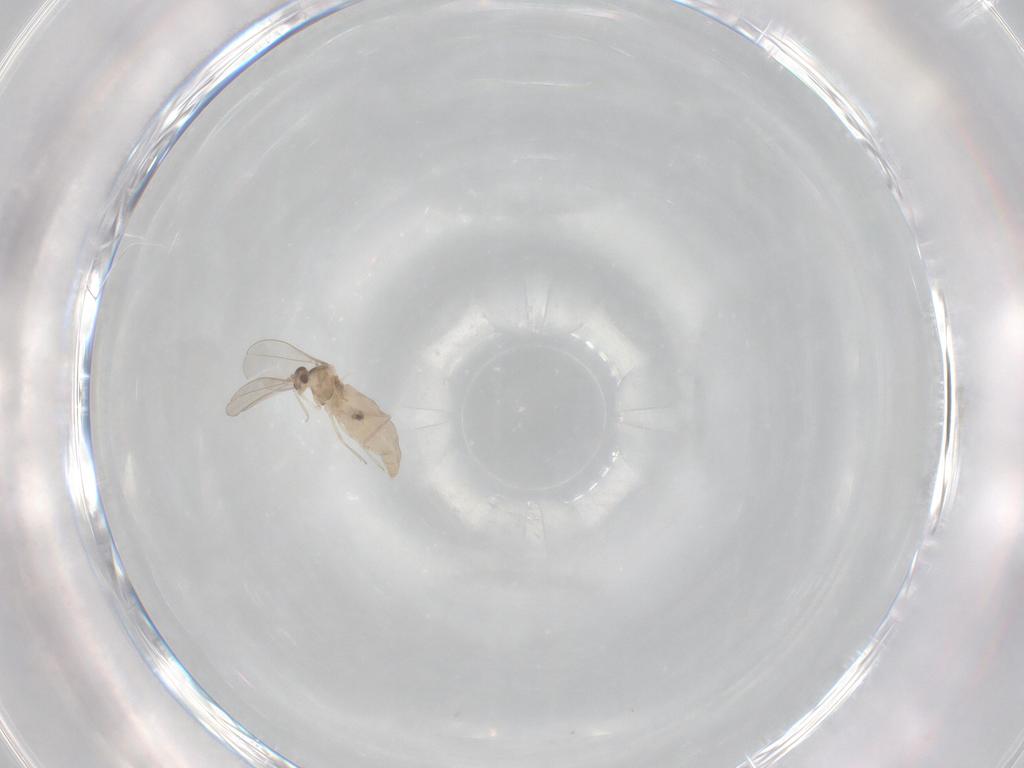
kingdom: Animalia
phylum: Arthropoda
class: Insecta
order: Diptera
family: Cecidomyiidae
